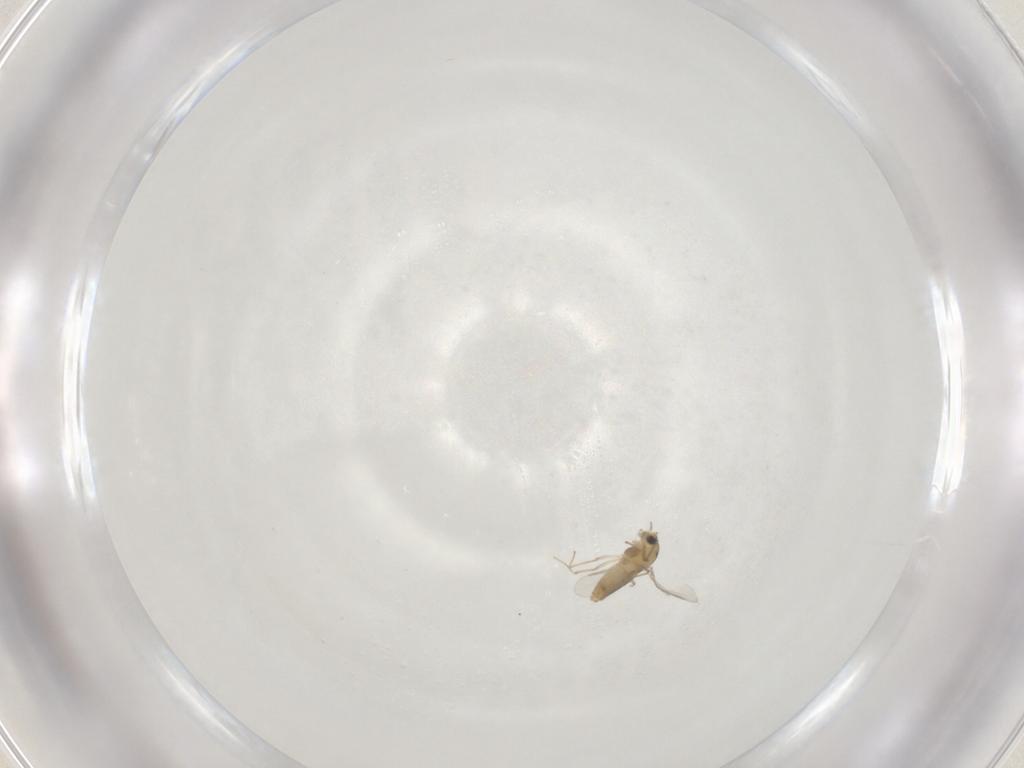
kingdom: Animalia
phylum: Arthropoda
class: Insecta
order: Diptera
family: Chironomidae
